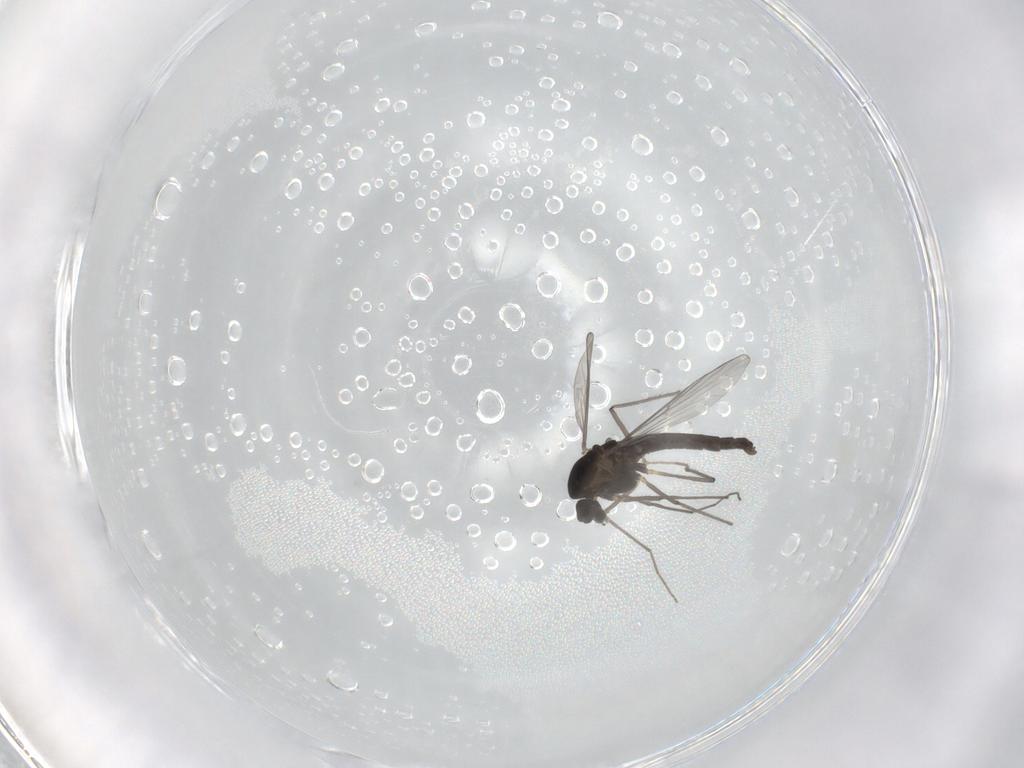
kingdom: Animalia
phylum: Arthropoda
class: Insecta
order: Diptera
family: Chironomidae
